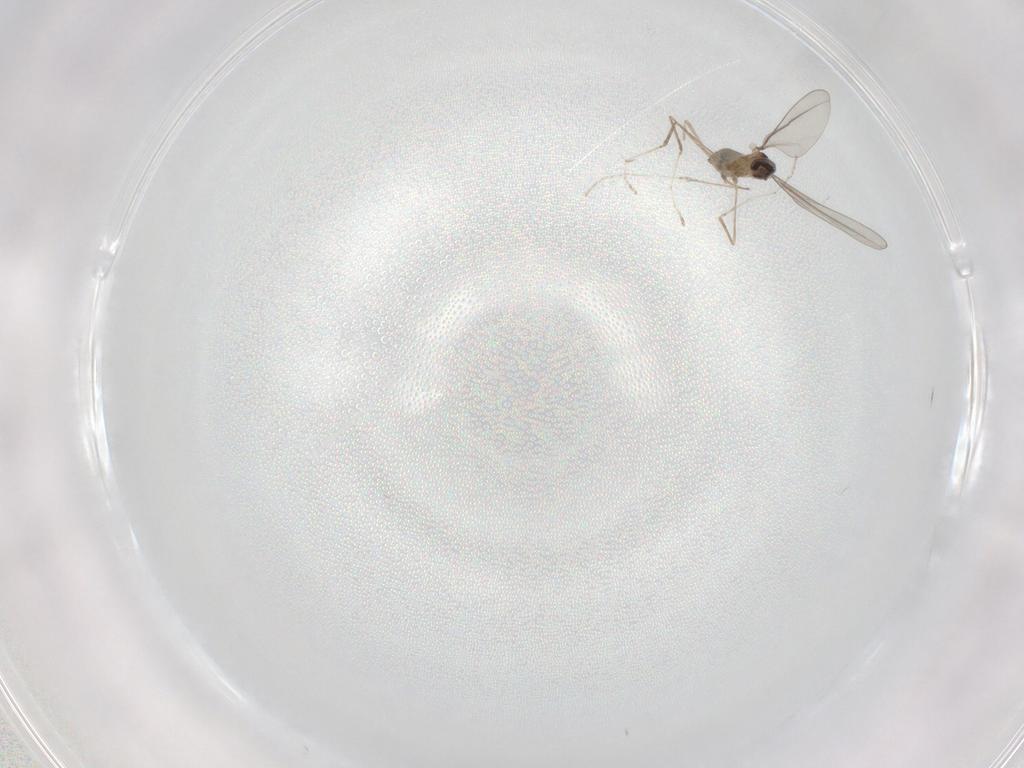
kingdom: Animalia
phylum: Arthropoda
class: Insecta
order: Diptera
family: Cecidomyiidae
